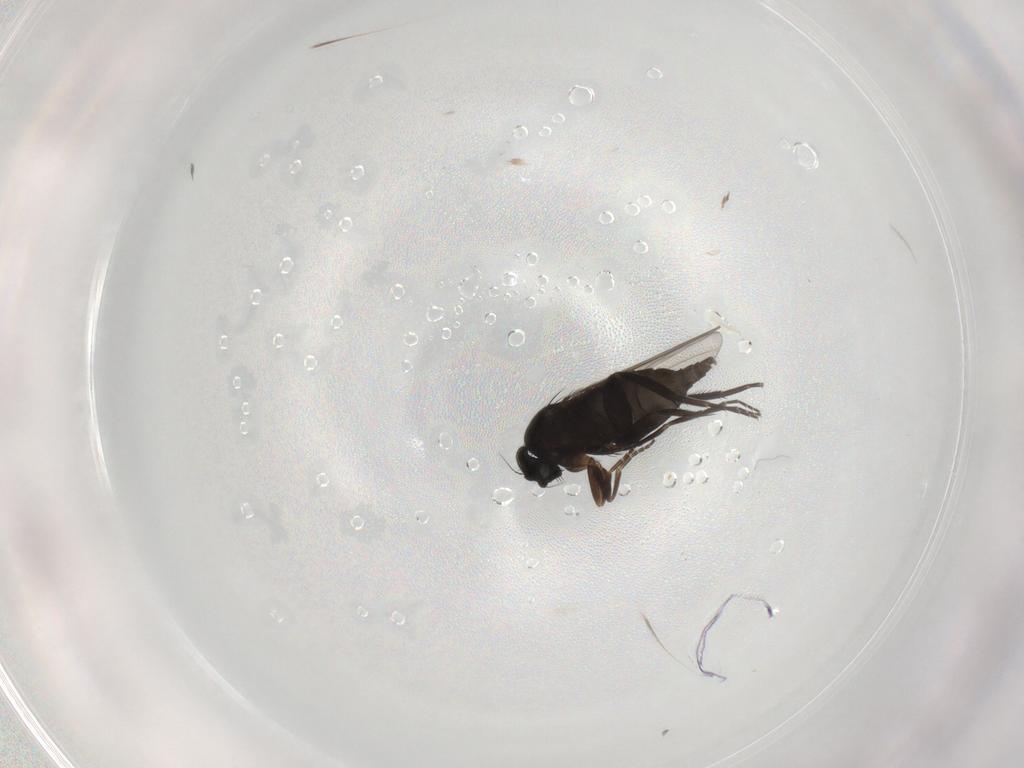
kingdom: Animalia
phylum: Arthropoda
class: Insecta
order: Diptera
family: Phoridae
